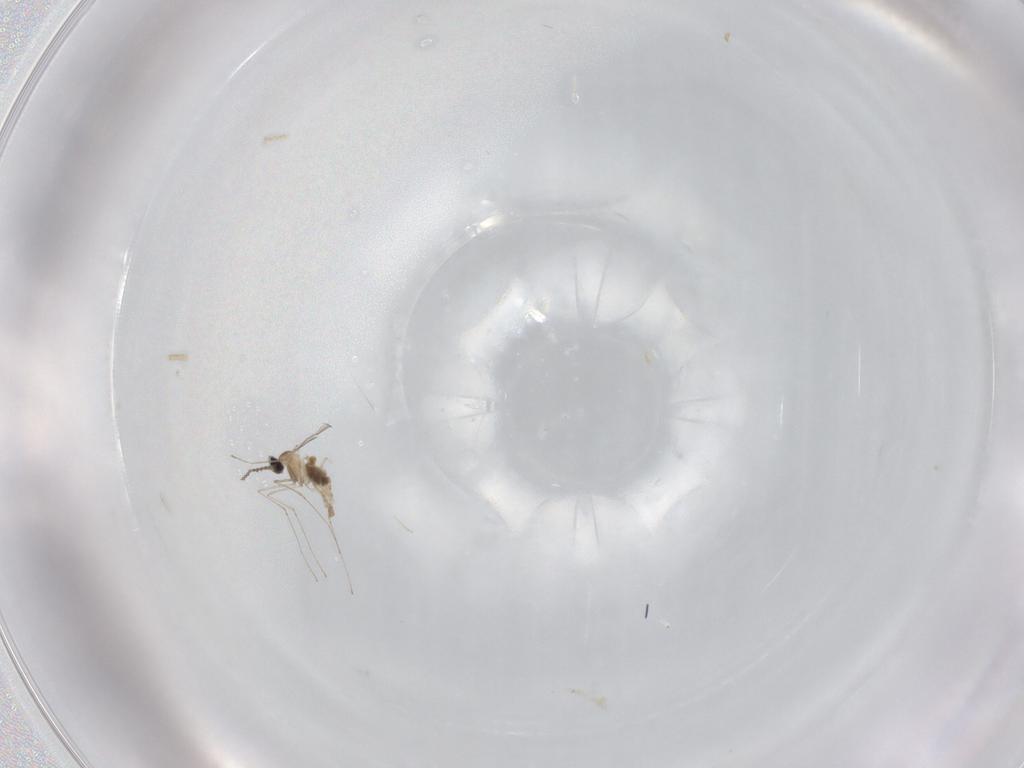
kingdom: Animalia
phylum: Arthropoda
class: Insecta
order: Diptera
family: Cecidomyiidae
